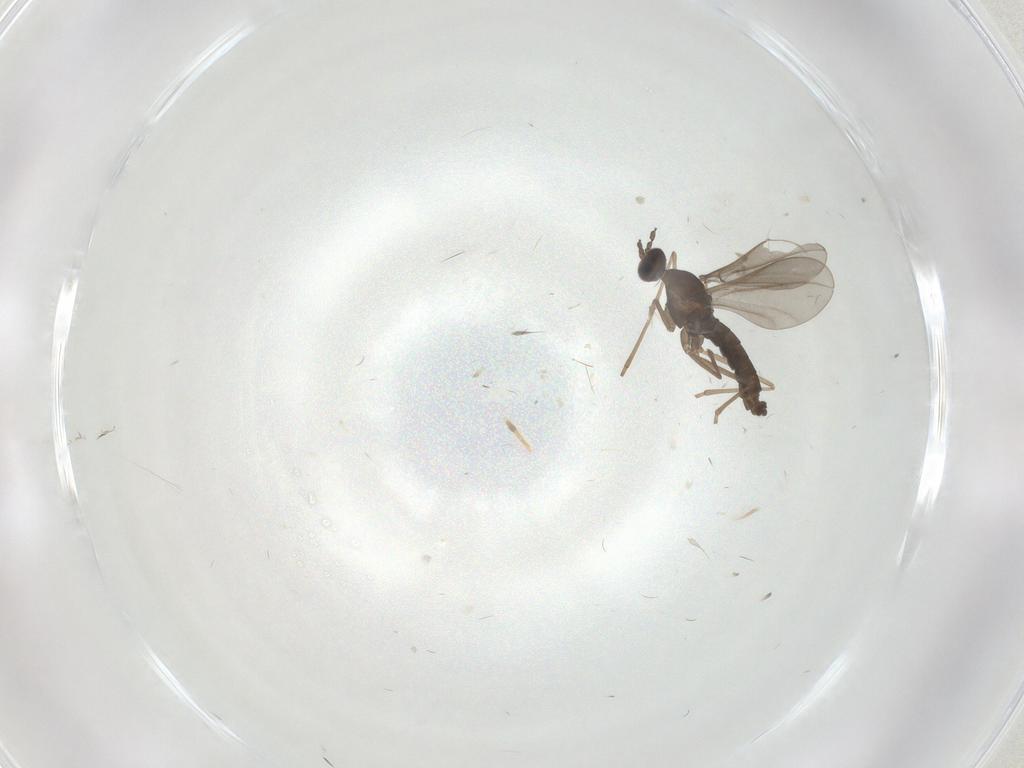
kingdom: Animalia
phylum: Arthropoda
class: Insecta
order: Diptera
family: Cecidomyiidae
